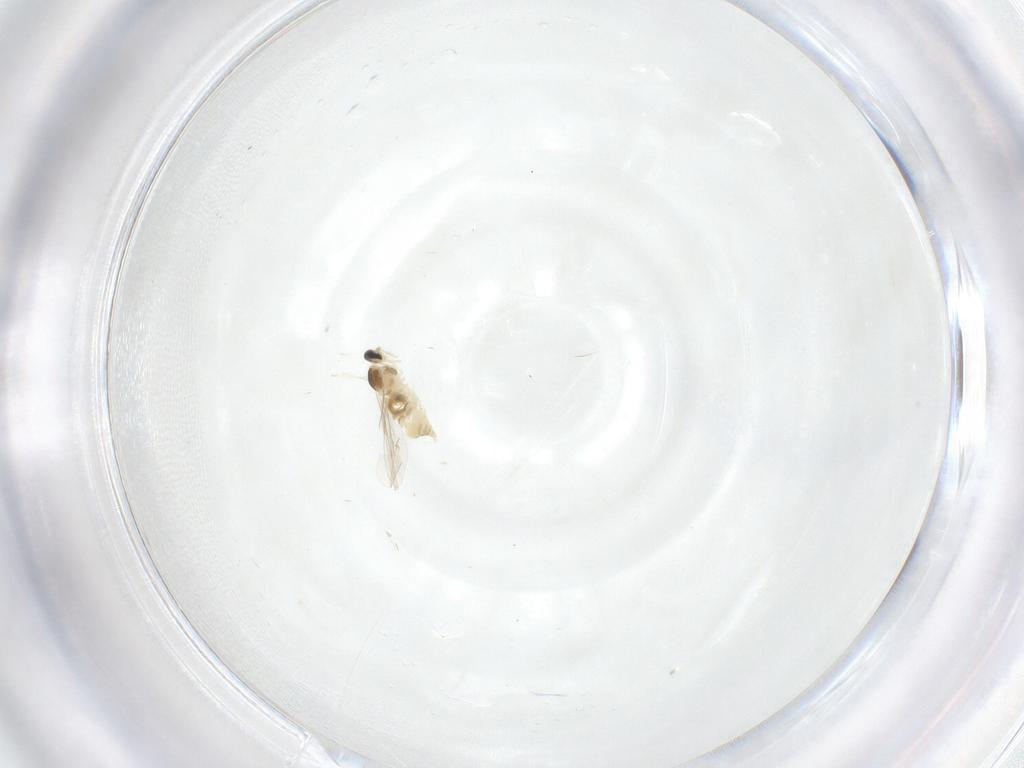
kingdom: Animalia
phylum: Arthropoda
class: Insecta
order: Diptera
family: Cecidomyiidae
